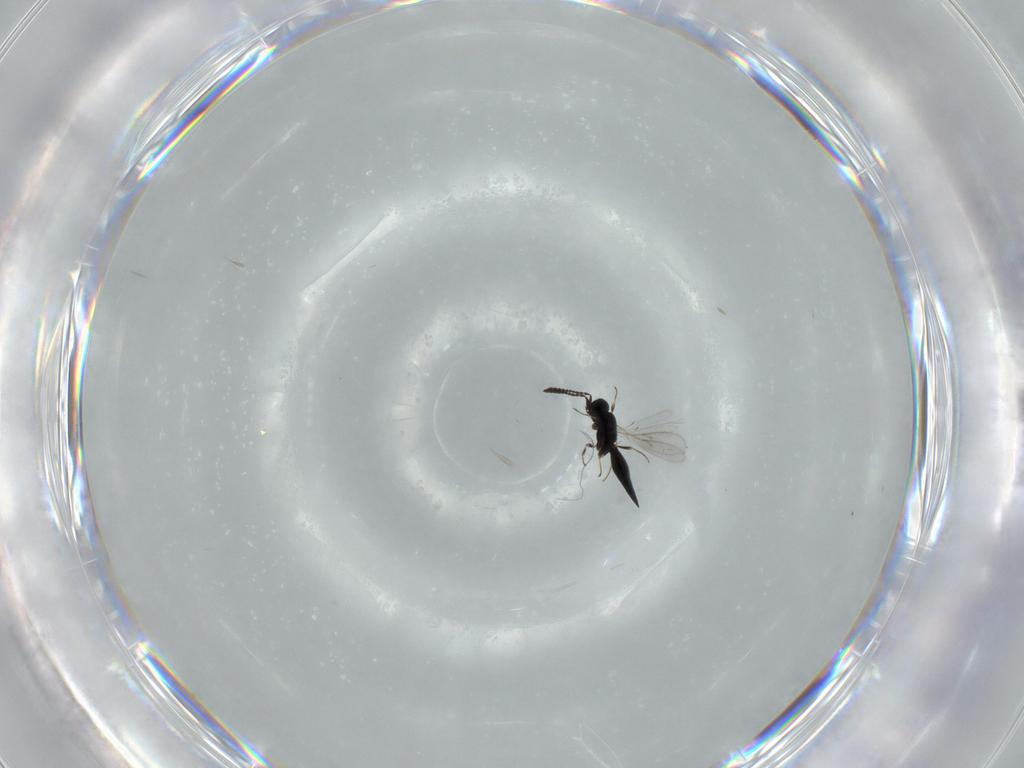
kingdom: Animalia
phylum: Arthropoda
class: Insecta
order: Hymenoptera
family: Scelionidae
